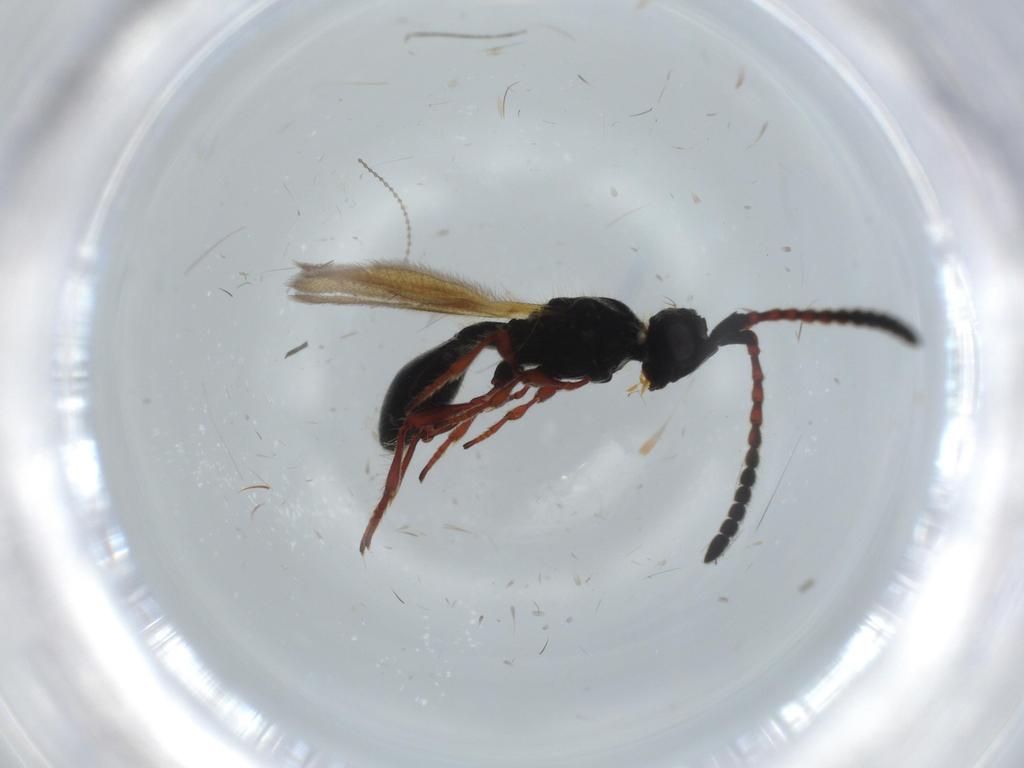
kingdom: Animalia
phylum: Arthropoda
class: Insecta
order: Hymenoptera
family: Diapriidae
